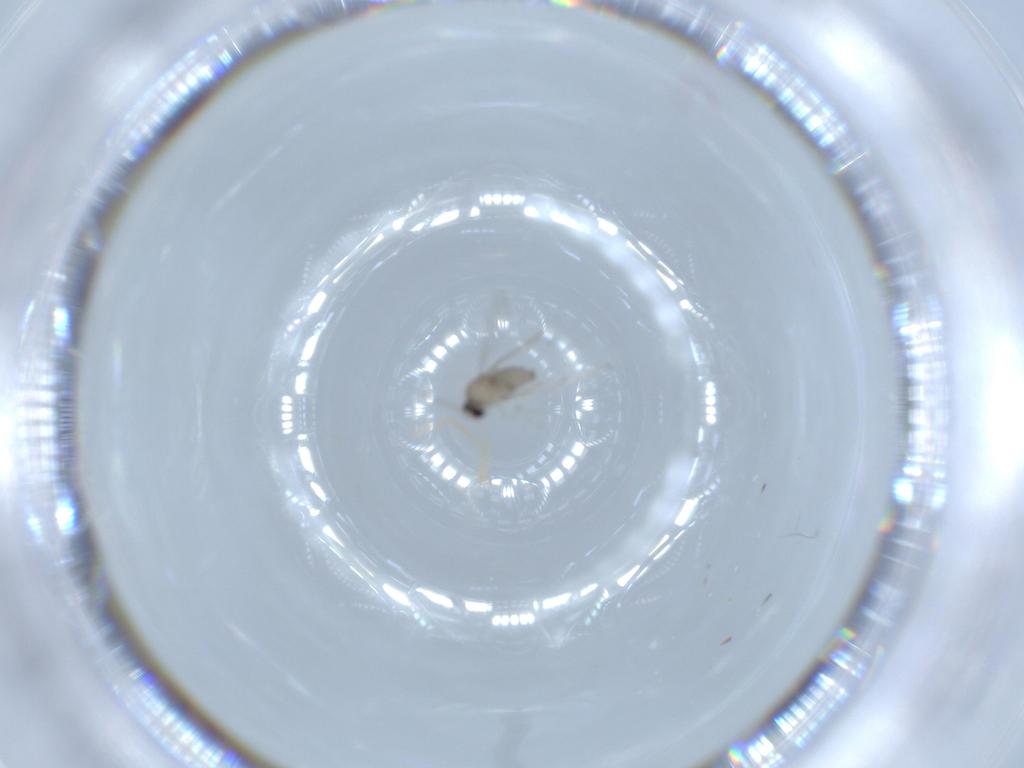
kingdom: Animalia
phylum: Arthropoda
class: Insecta
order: Diptera
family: Cecidomyiidae
